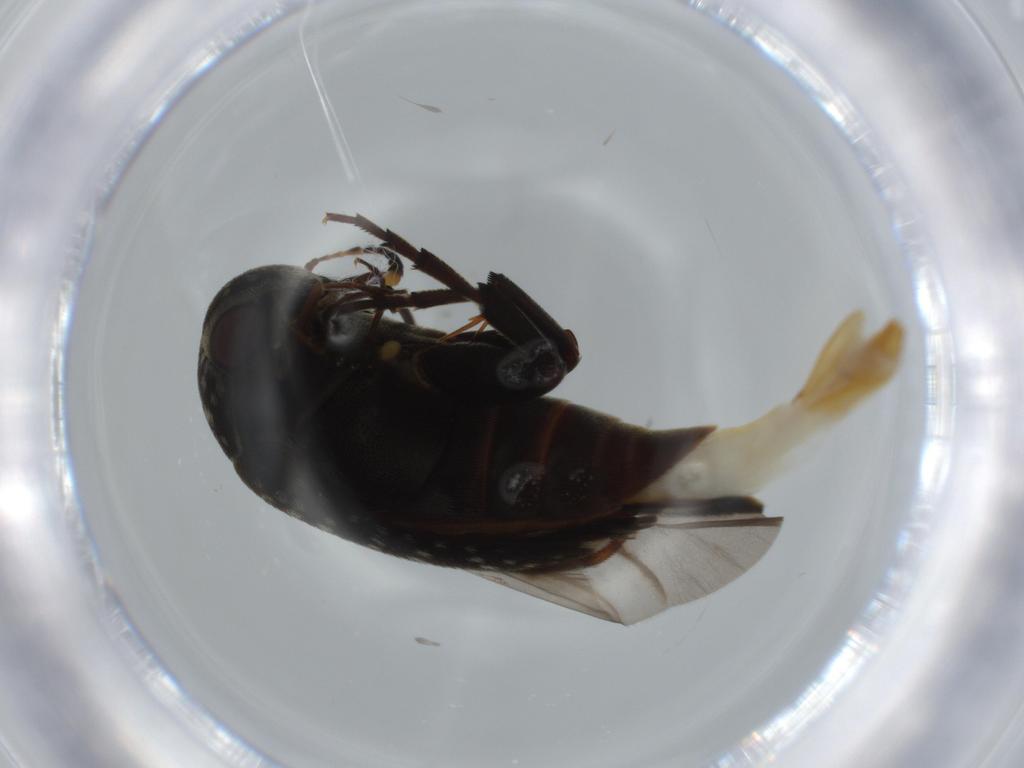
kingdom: Animalia
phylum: Arthropoda
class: Insecta
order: Coleoptera
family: Mordellidae
